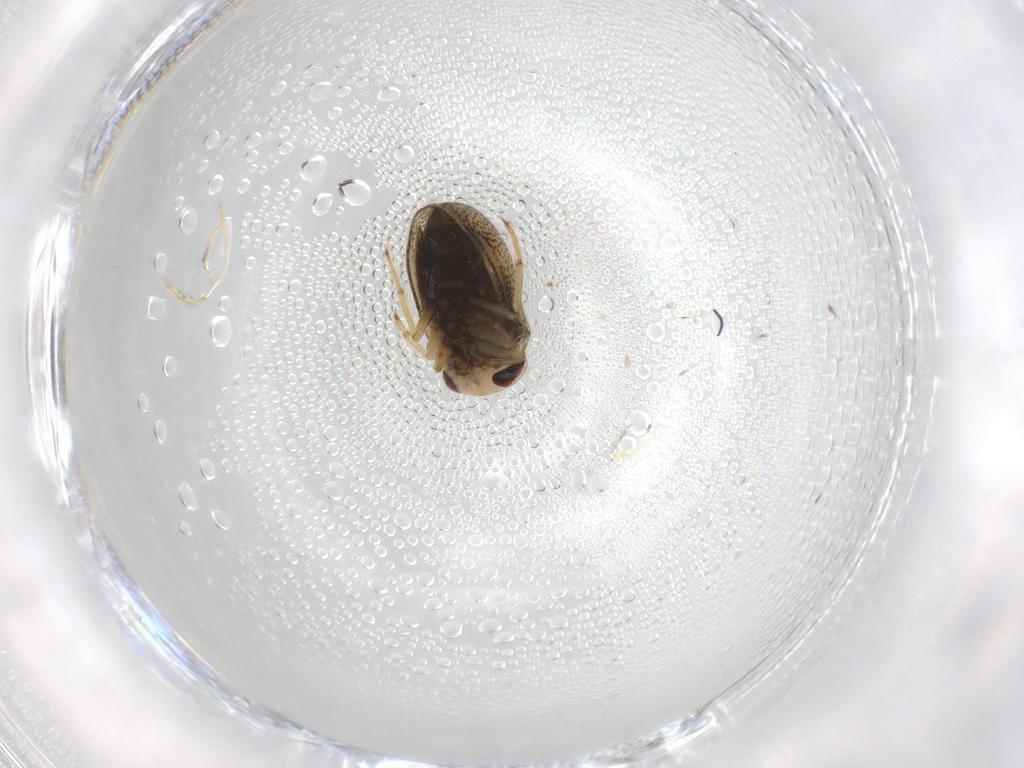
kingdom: Animalia
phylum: Arthropoda
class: Insecta
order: Hemiptera
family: Pleidae
